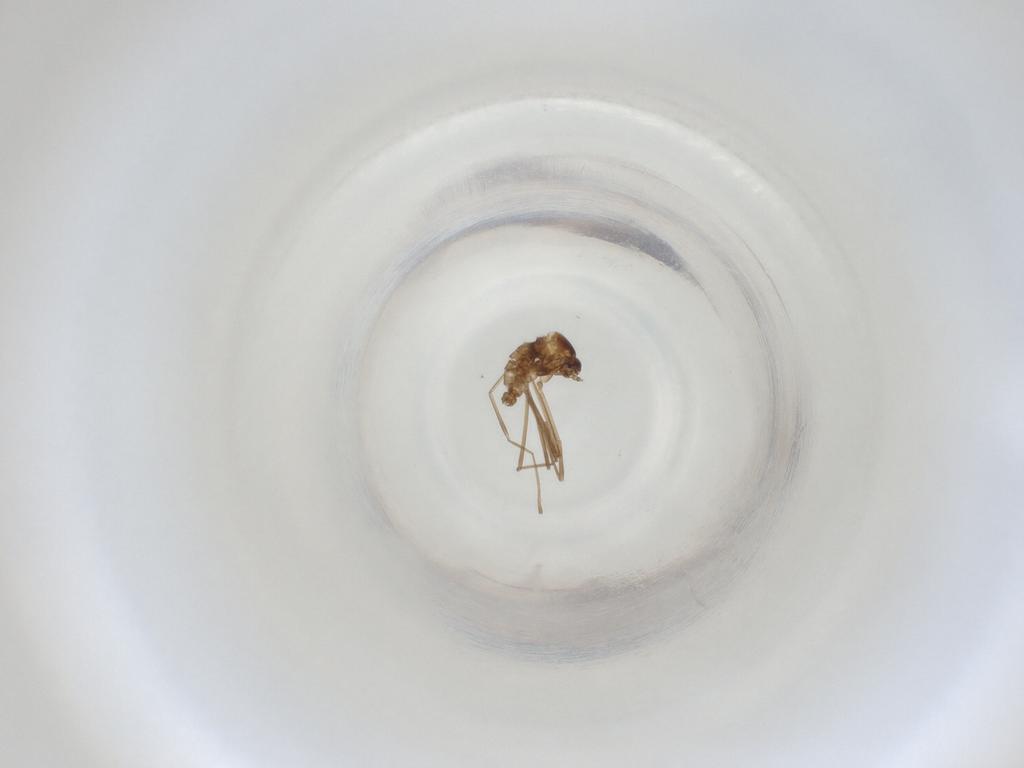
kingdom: Animalia
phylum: Arthropoda
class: Insecta
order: Diptera
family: Cecidomyiidae
